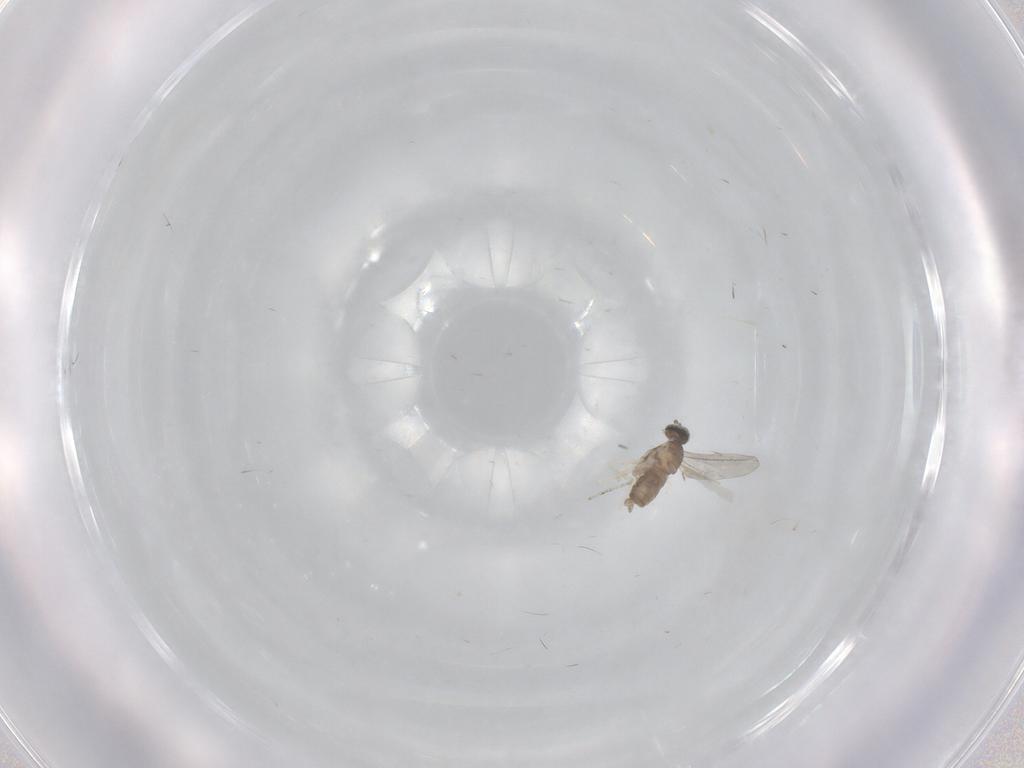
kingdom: Animalia
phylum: Arthropoda
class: Insecta
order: Diptera
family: Cecidomyiidae
